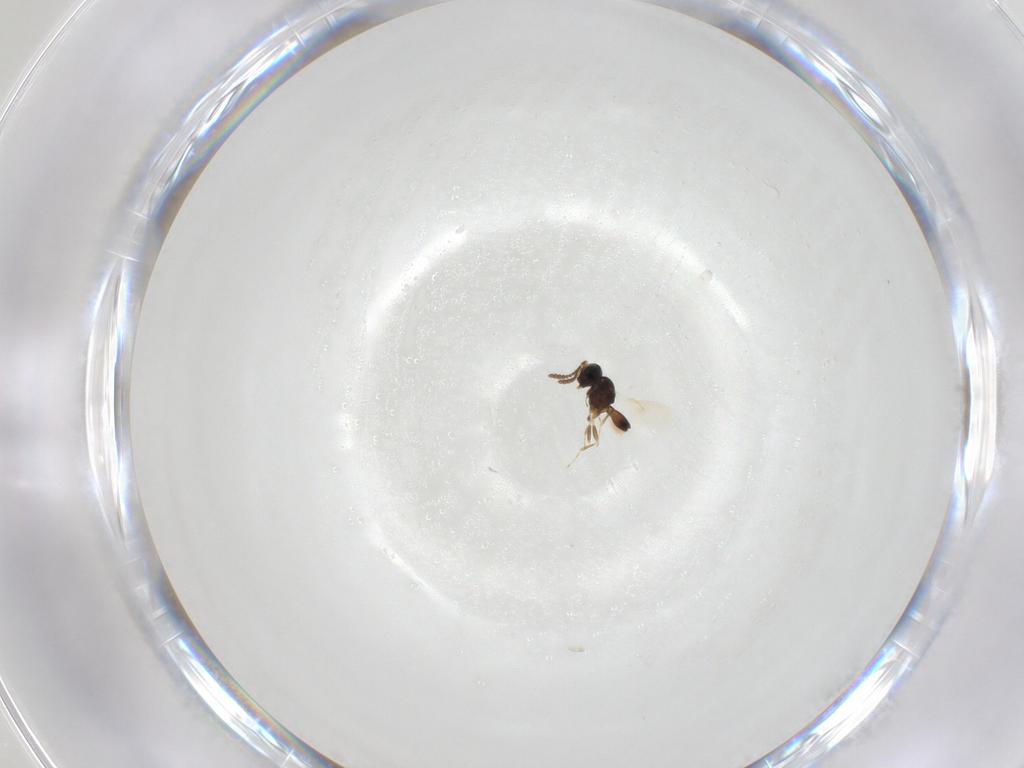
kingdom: Animalia
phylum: Arthropoda
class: Insecta
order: Hymenoptera
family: Scelionidae
